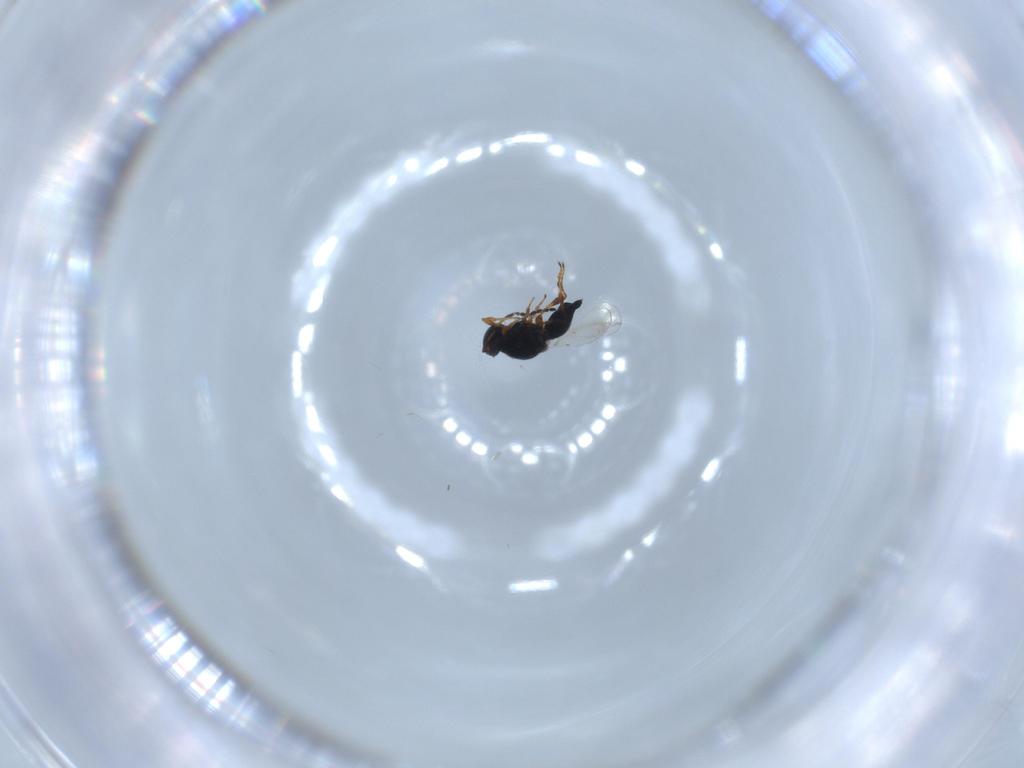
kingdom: Animalia
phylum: Arthropoda
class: Insecta
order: Hymenoptera
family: Platygastridae
